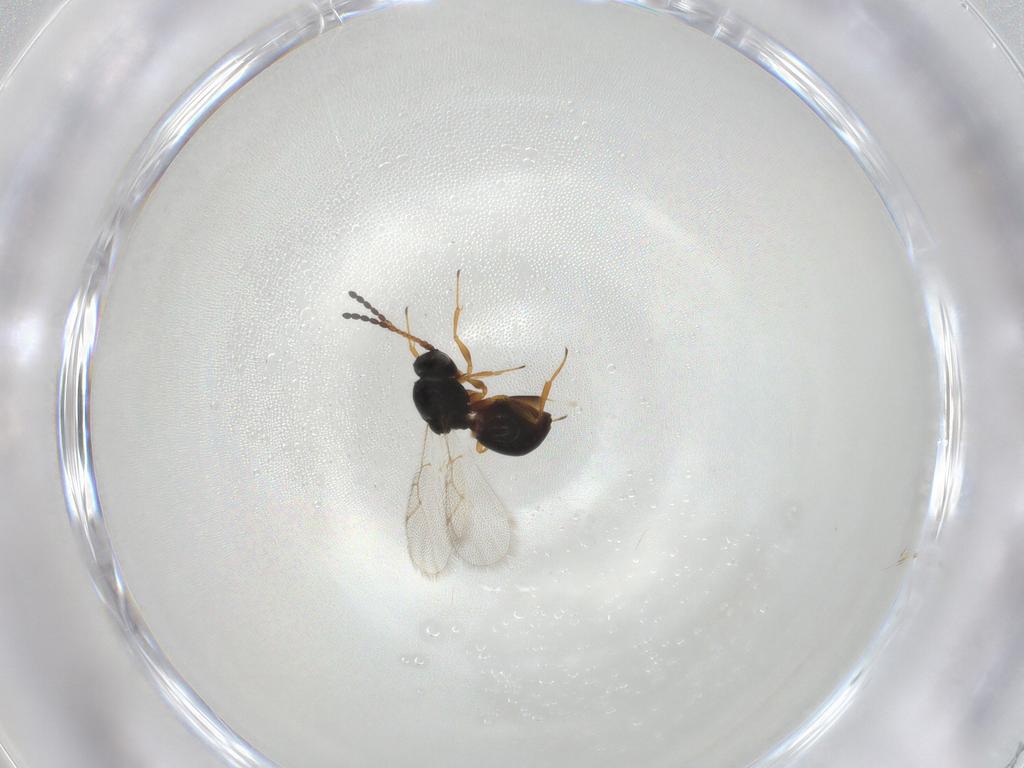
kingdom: Animalia
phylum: Arthropoda
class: Insecta
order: Hymenoptera
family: Figitidae
